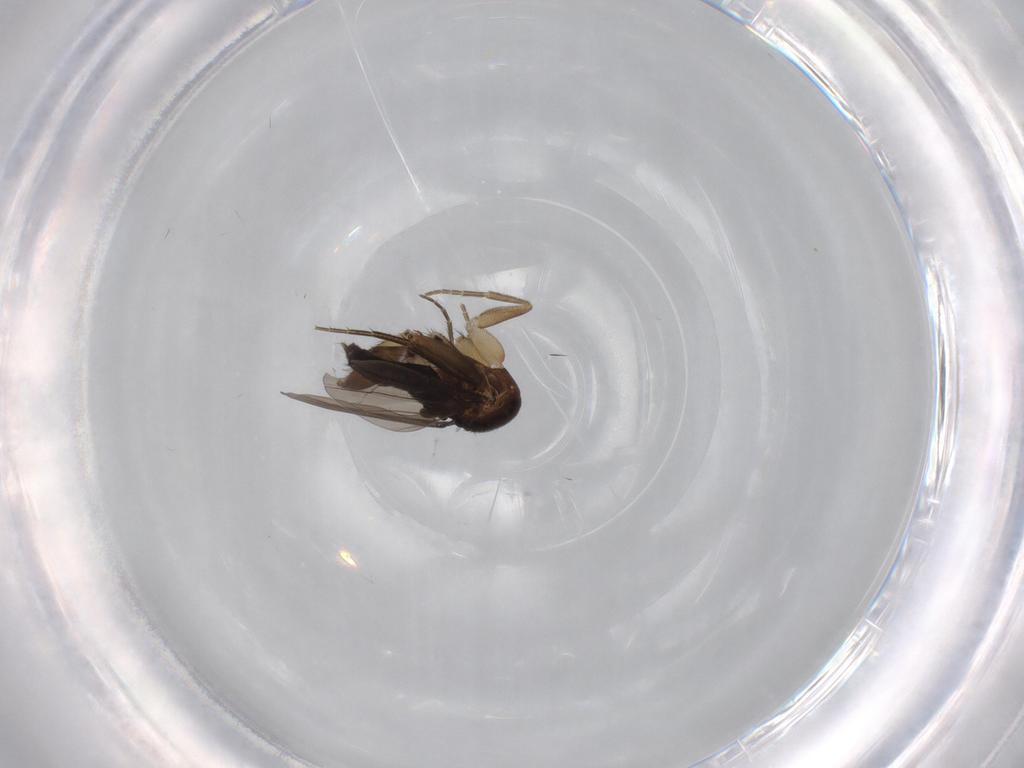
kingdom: Animalia
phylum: Arthropoda
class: Insecta
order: Diptera
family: Phoridae
